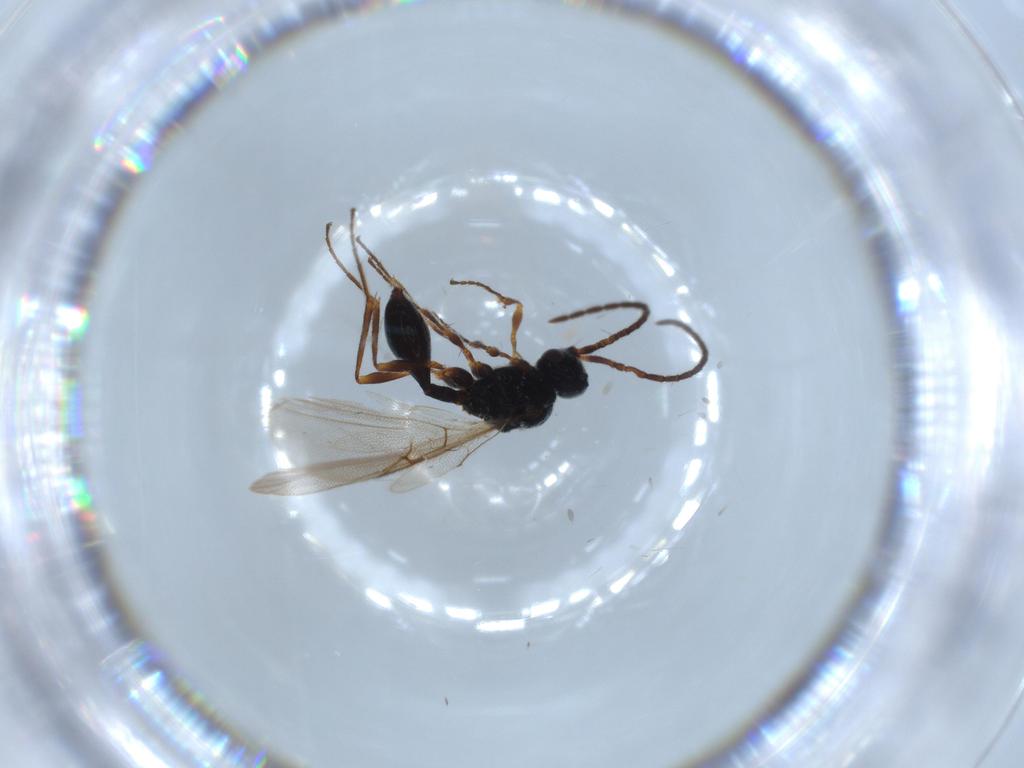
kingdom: Animalia
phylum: Arthropoda
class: Insecta
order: Hymenoptera
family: Diapriidae
